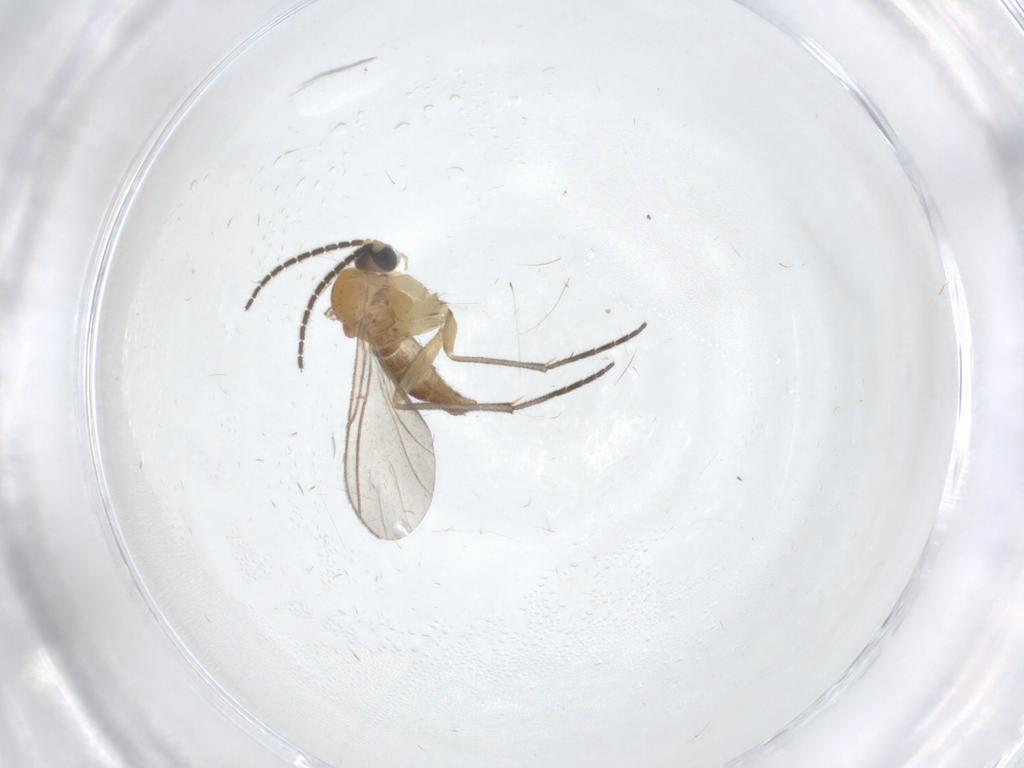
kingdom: Animalia
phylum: Arthropoda
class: Insecta
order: Diptera
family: Sciaridae
